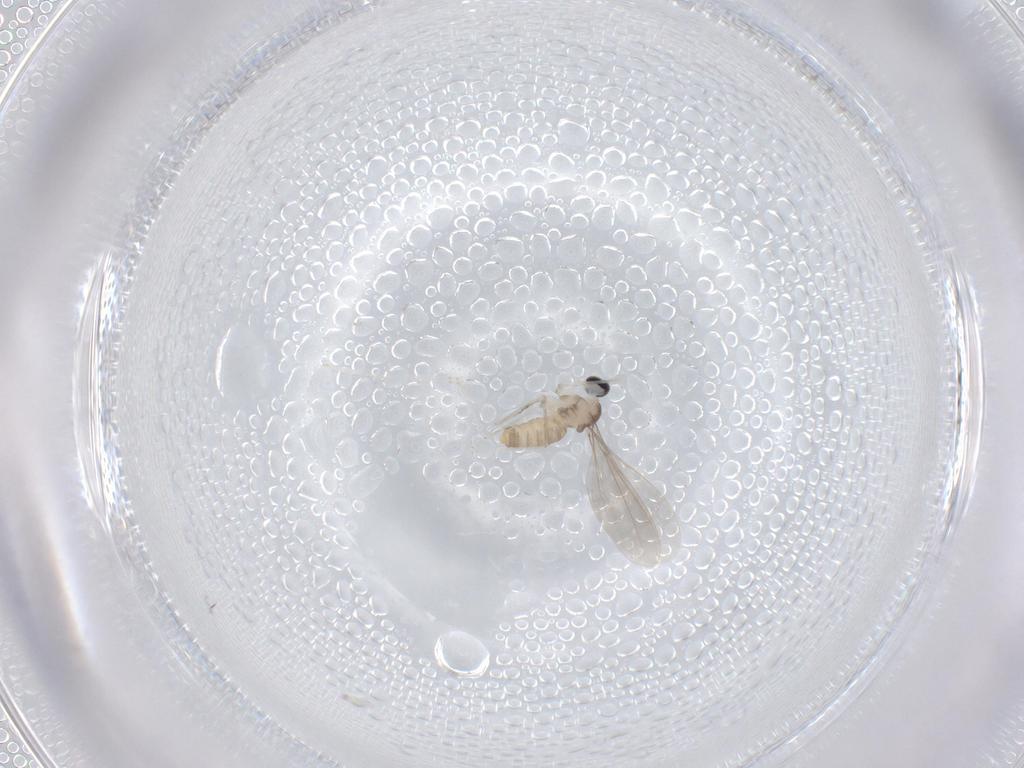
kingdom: Animalia
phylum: Arthropoda
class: Insecta
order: Diptera
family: Cecidomyiidae
